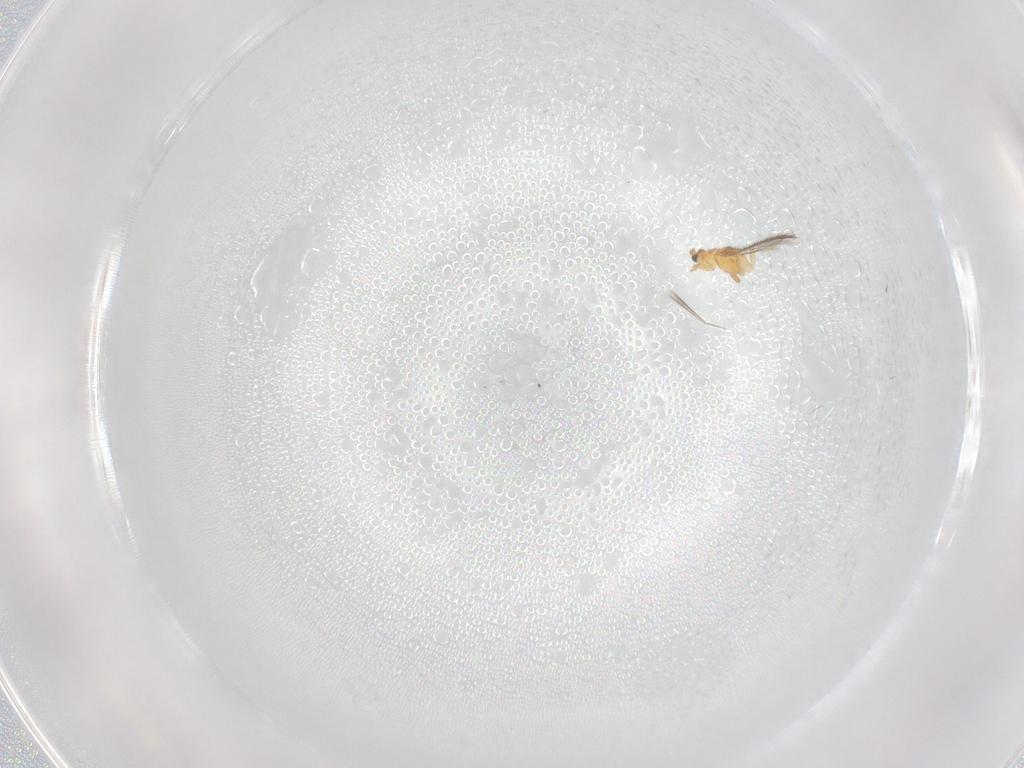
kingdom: Animalia
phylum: Arthropoda
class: Insecta
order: Thysanoptera
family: Thripidae
